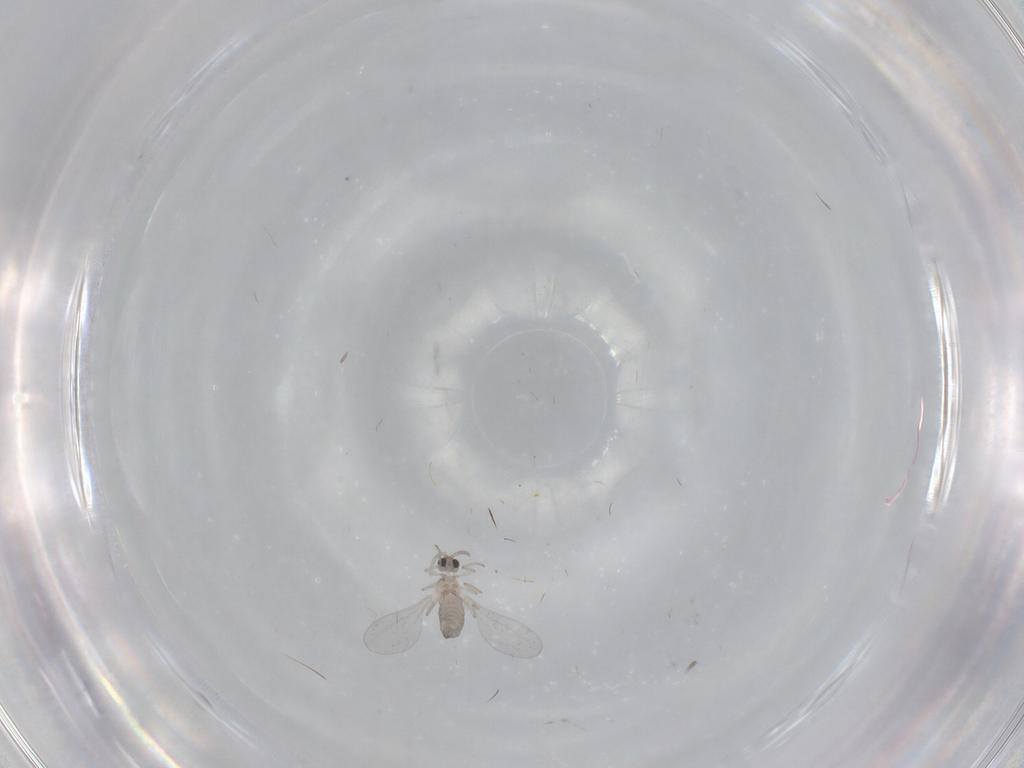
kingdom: Animalia
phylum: Arthropoda
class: Insecta
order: Diptera
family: Cecidomyiidae
